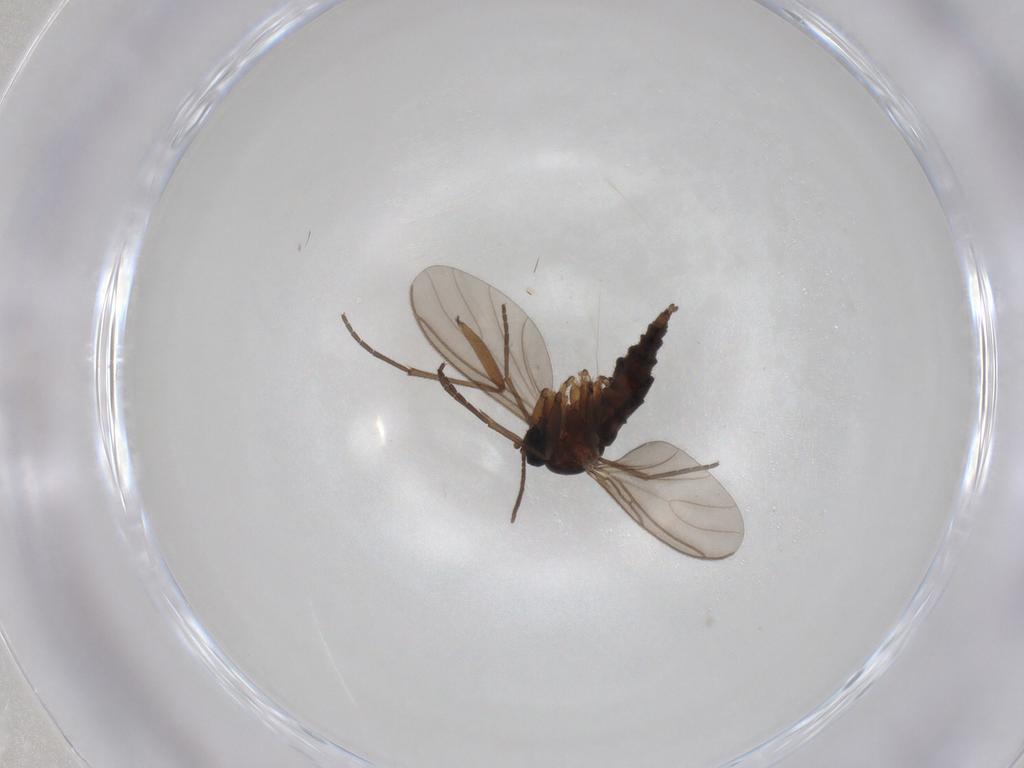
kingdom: Animalia
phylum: Arthropoda
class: Insecta
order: Diptera
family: Sciaridae
